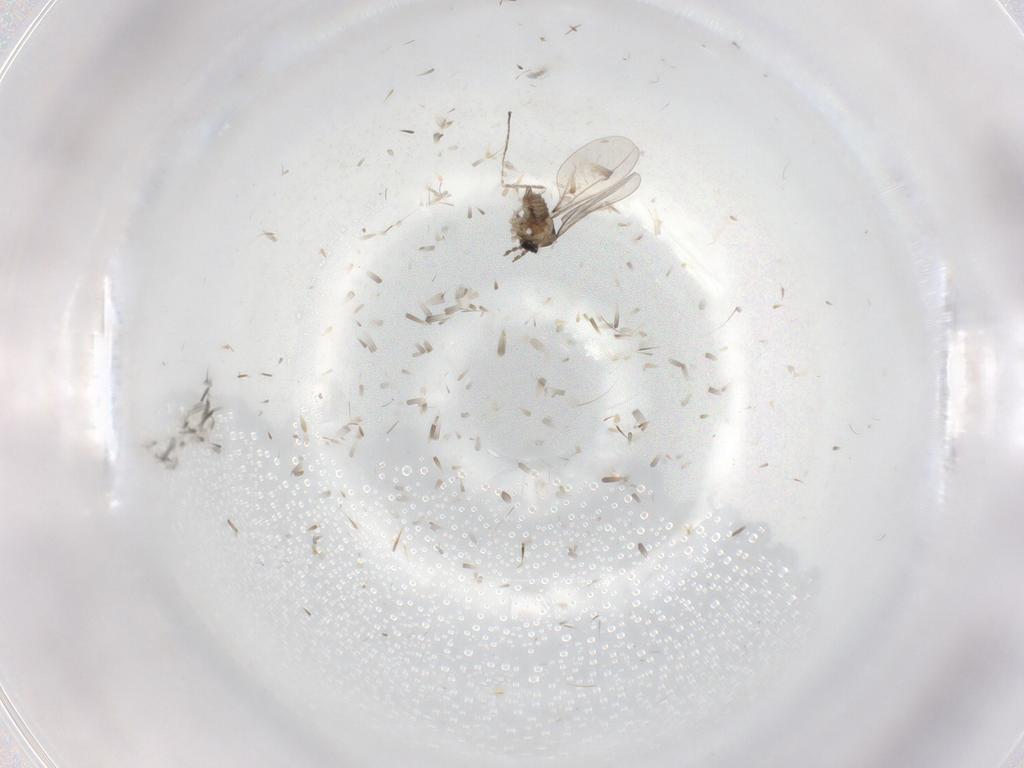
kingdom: Animalia
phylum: Arthropoda
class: Insecta
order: Diptera
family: Cecidomyiidae
